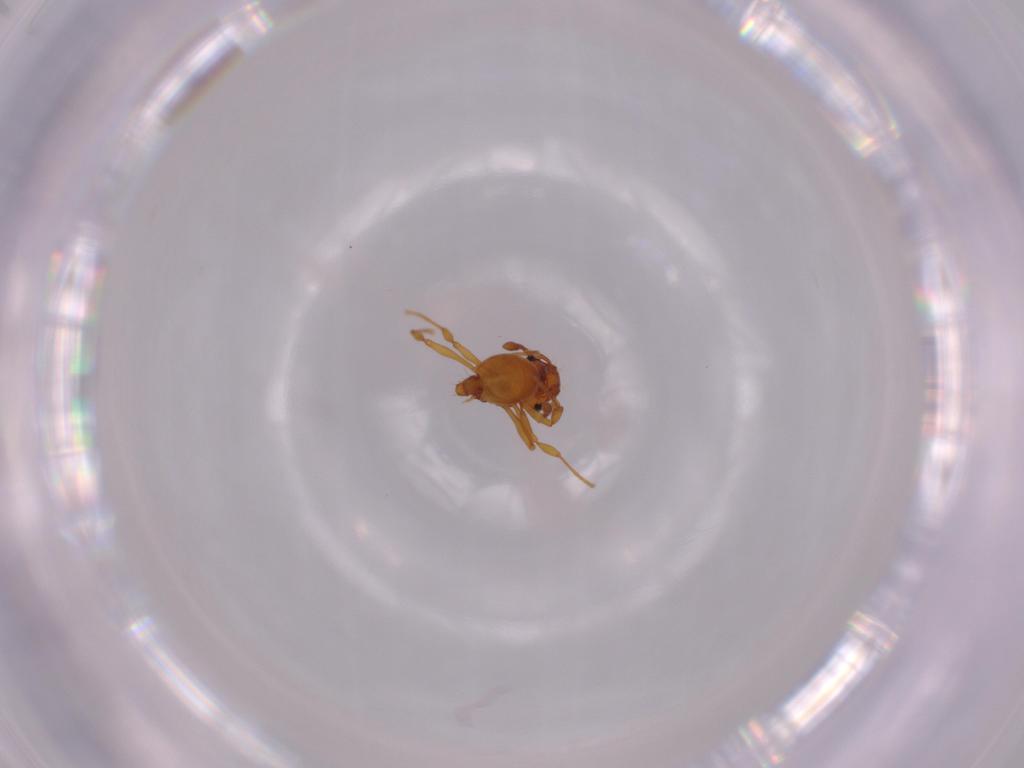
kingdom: Animalia
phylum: Arthropoda
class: Insecta
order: Hymenoptera
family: Formicidae
